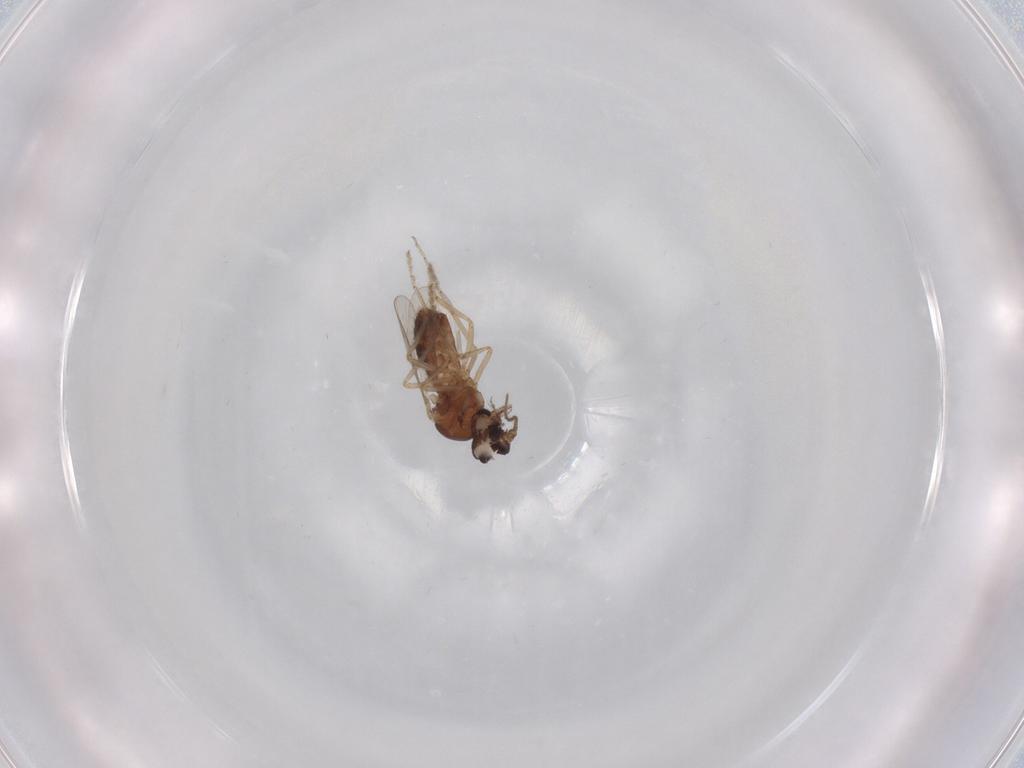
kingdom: Animalia
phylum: Arthropoda
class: Insecta
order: Diptera
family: Ceratopogonidae
